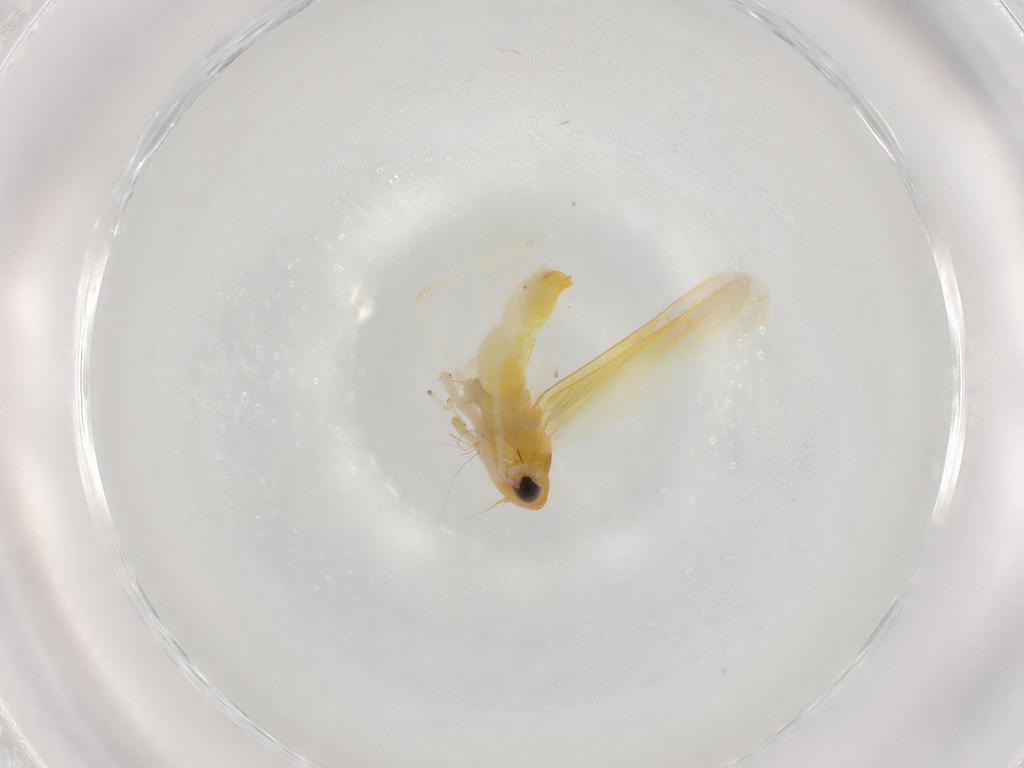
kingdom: Animalia
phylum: Arthropoda
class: Insecta
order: Hemiptera
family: Cicadellidae
